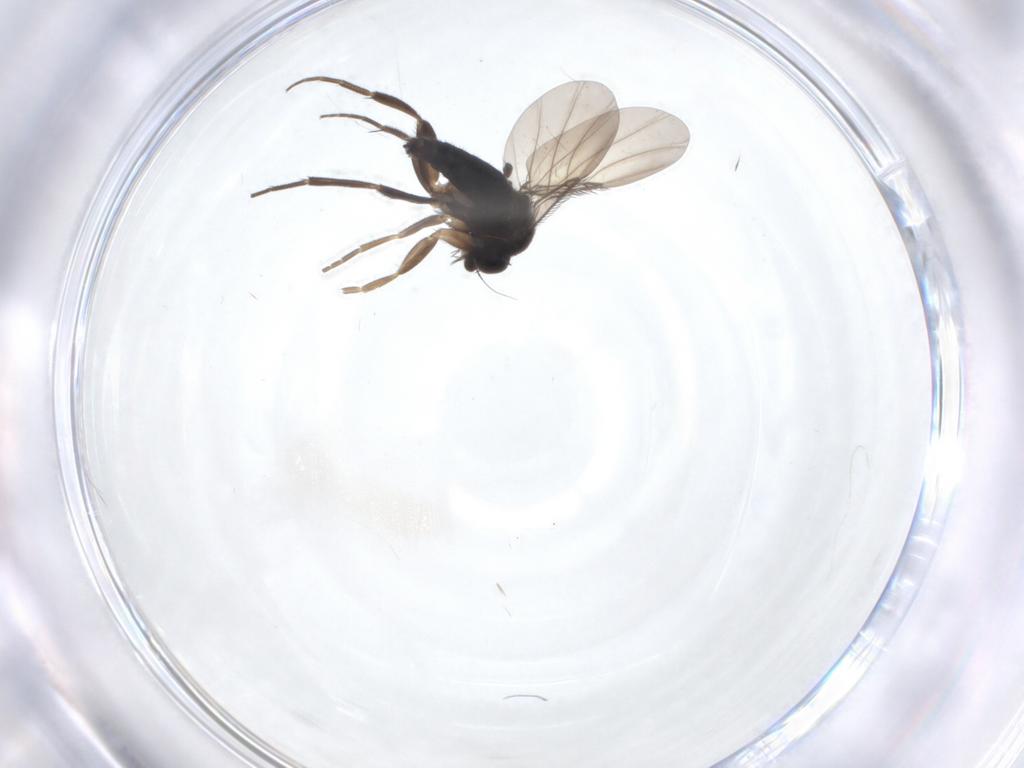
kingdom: Animalia
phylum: Arthropoda
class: Insecta
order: Diptera
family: Phoridae
